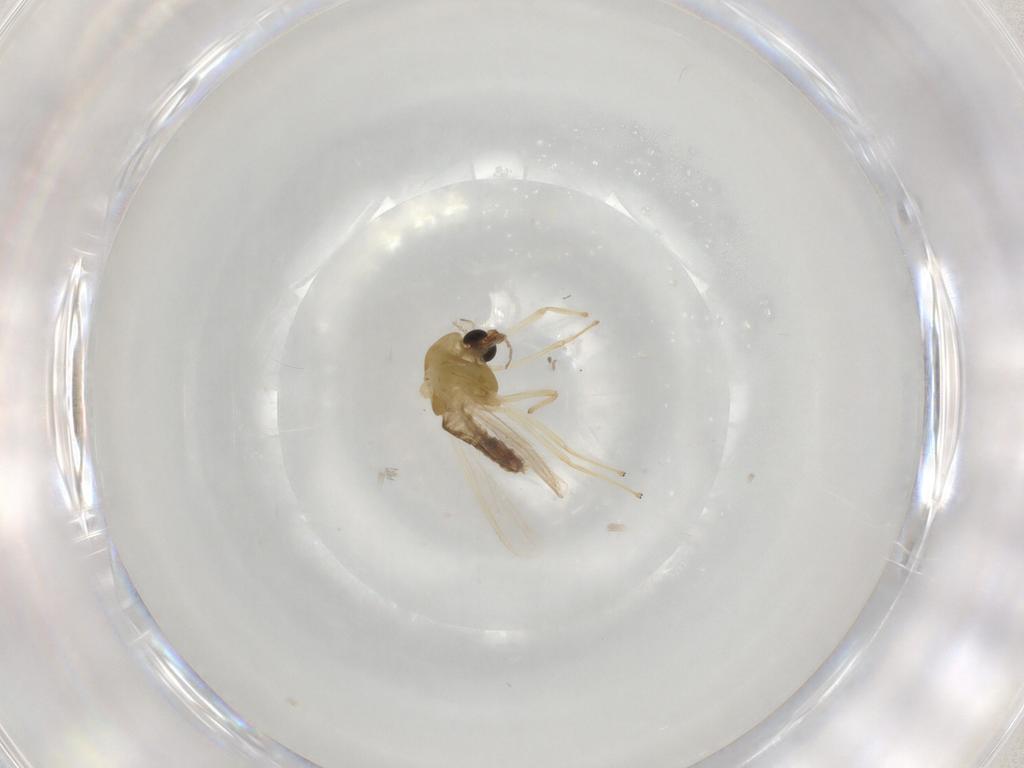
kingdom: Animalia
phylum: Arthropoda
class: Insecta
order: Diptera
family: Chironomidae
